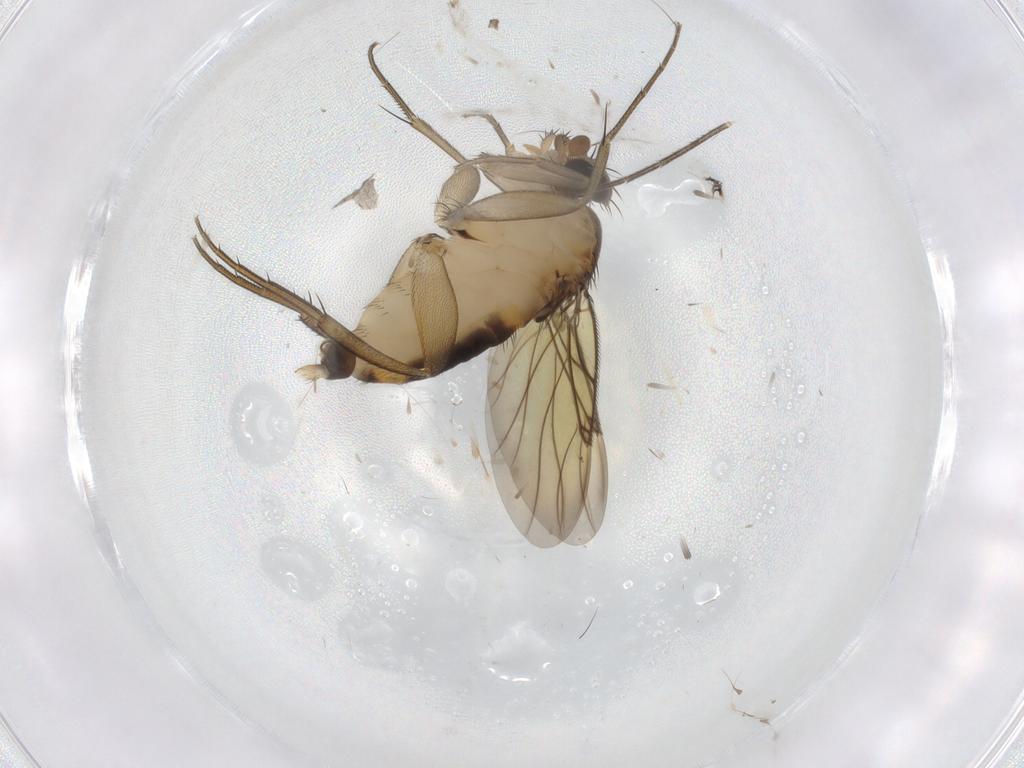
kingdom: Animalia
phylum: Arthropoda
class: Insecta
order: Diptera
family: Keroplatidae
